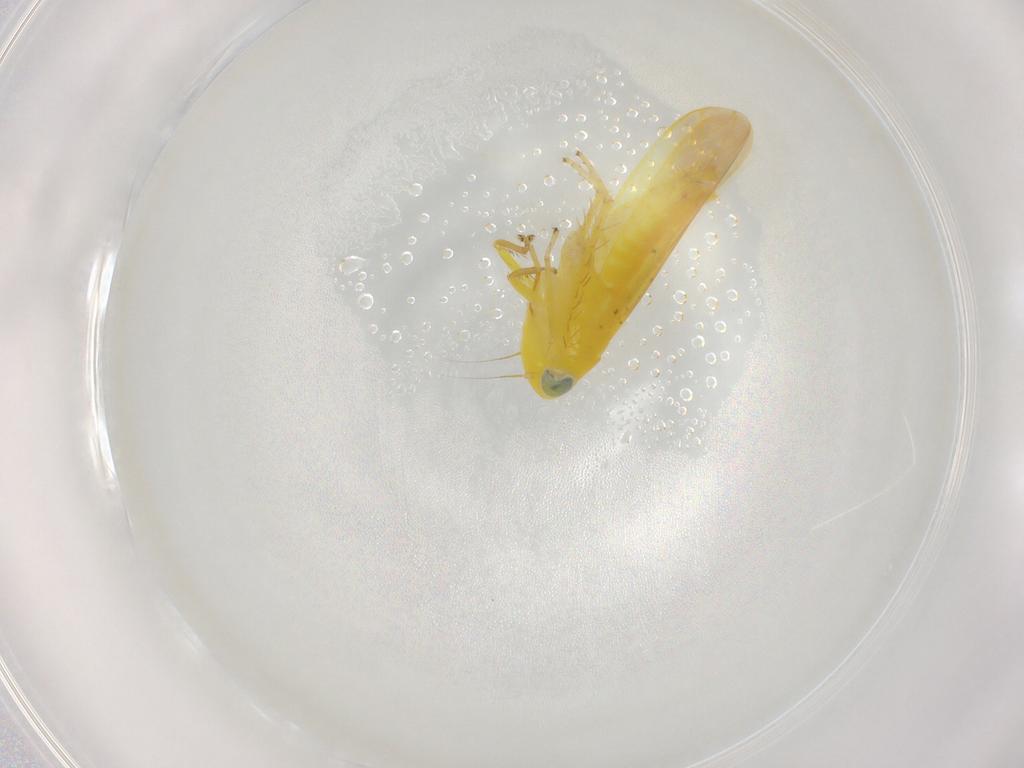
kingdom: Animalia
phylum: Arthropoda
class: Insecta
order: Hemiptera
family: Cicadellidae
